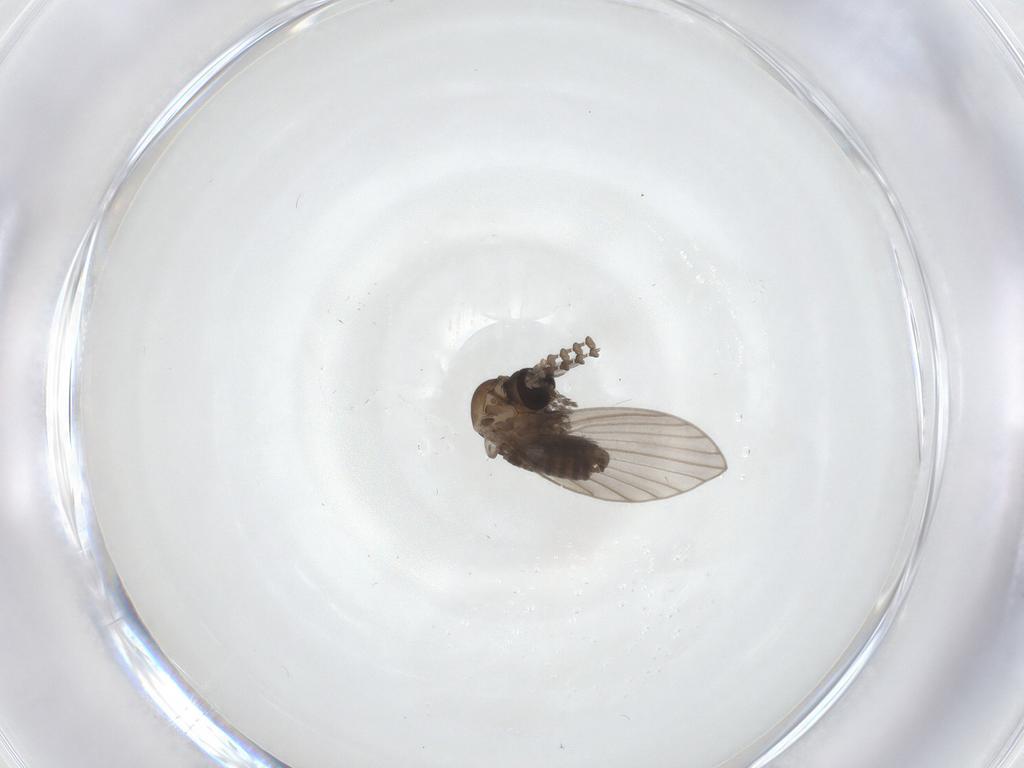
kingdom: Animalia
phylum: Arthropoda
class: Insecta
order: Diptera
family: Psychodidae
